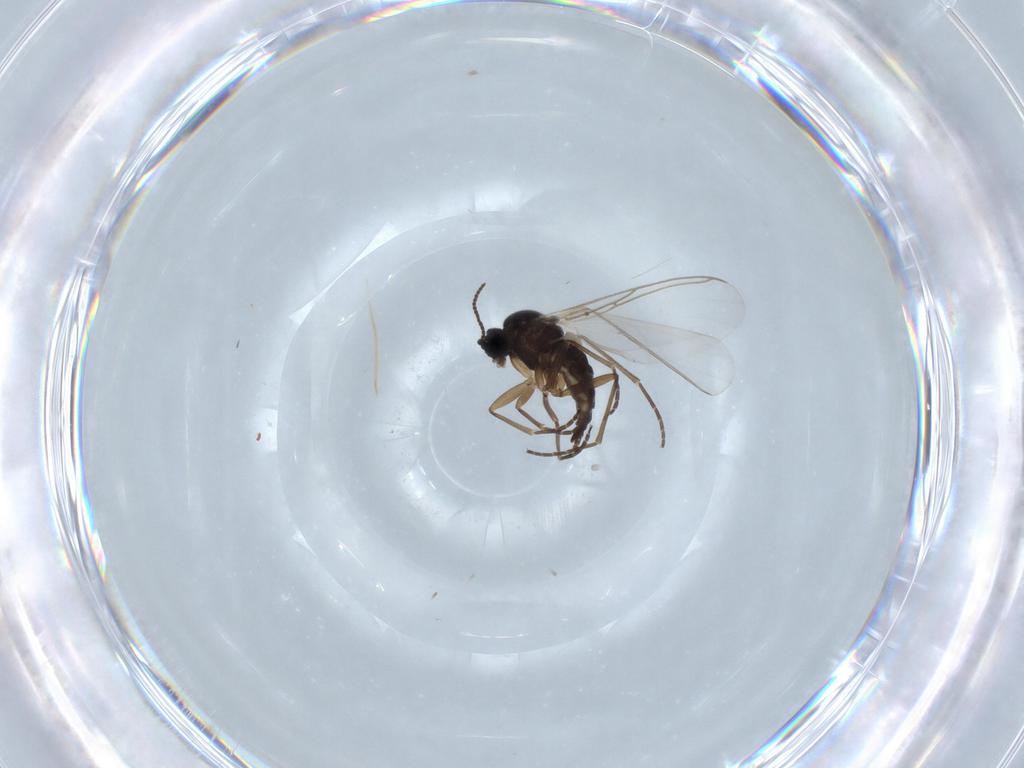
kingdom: Animalia
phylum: Arthropoda
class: Insecta
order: Diptera
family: Sciaridae
